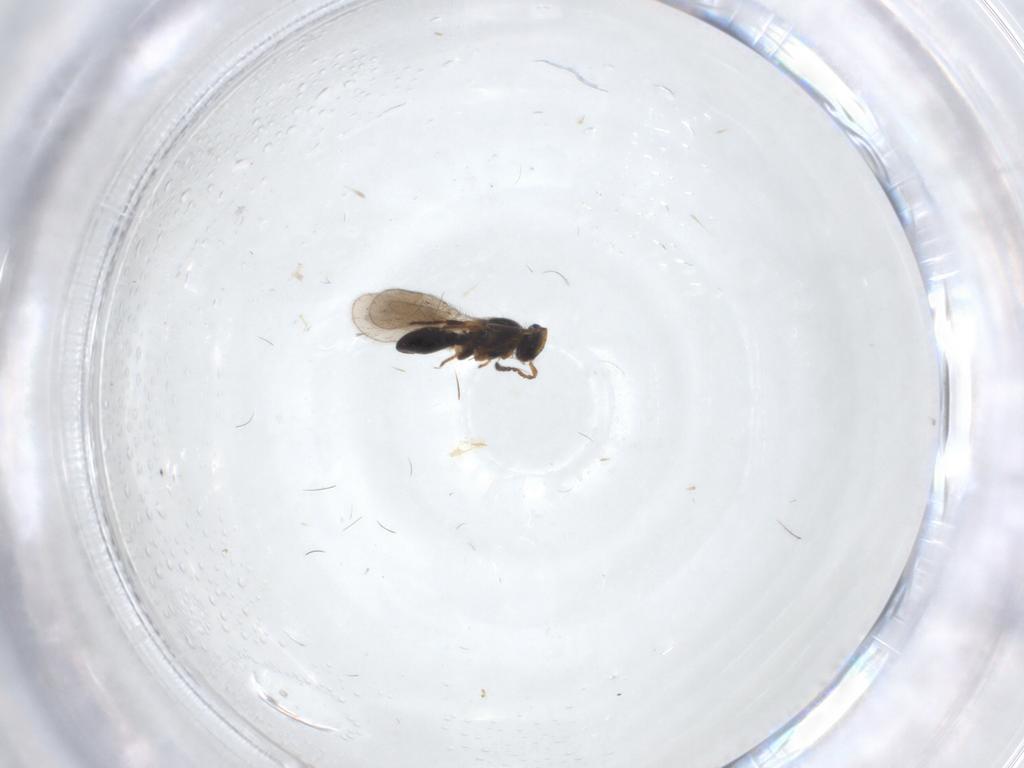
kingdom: Animalia
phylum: Arthropoda
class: Insecta
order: Hymenoptera
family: Platygastridae
